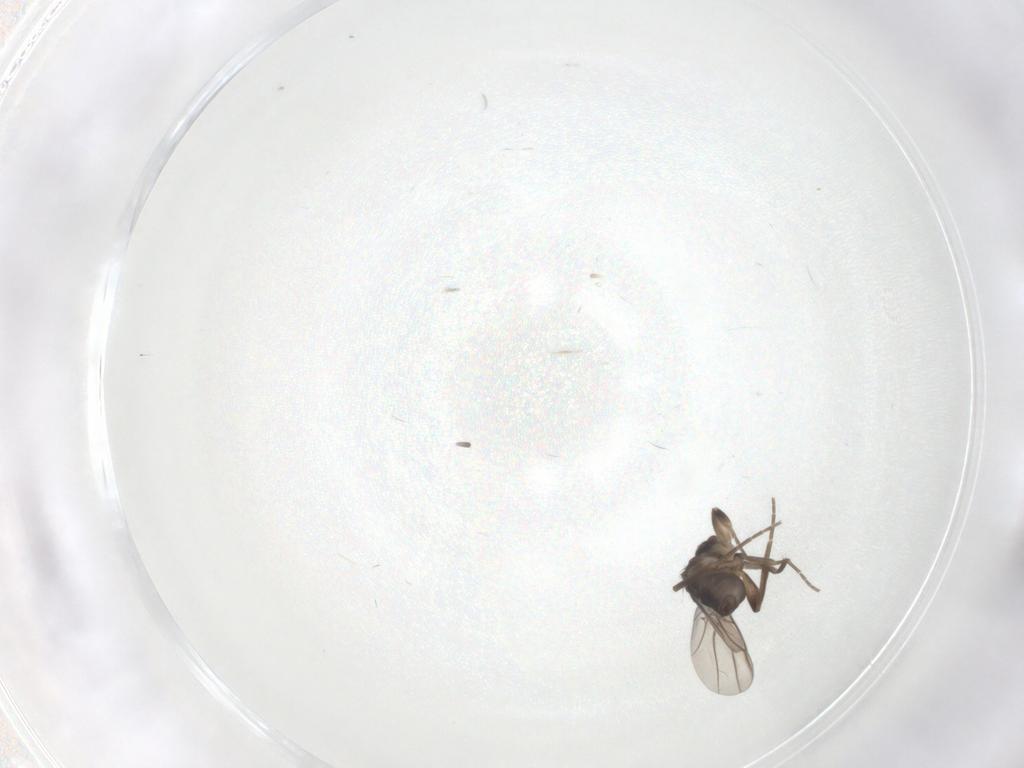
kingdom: Animalia
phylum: Arthropoda
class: Insecta
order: Diptera
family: Phoridae
